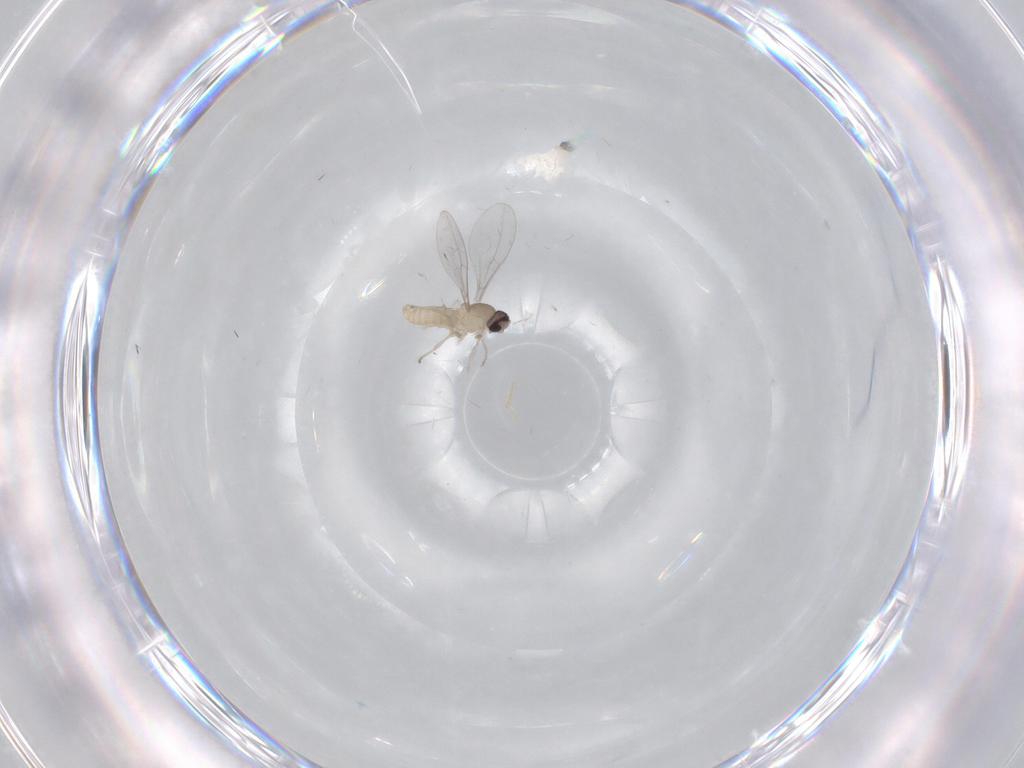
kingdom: Animalia
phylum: Arthropoda
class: Insecta
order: Diptera
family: Cecidomyiidae
